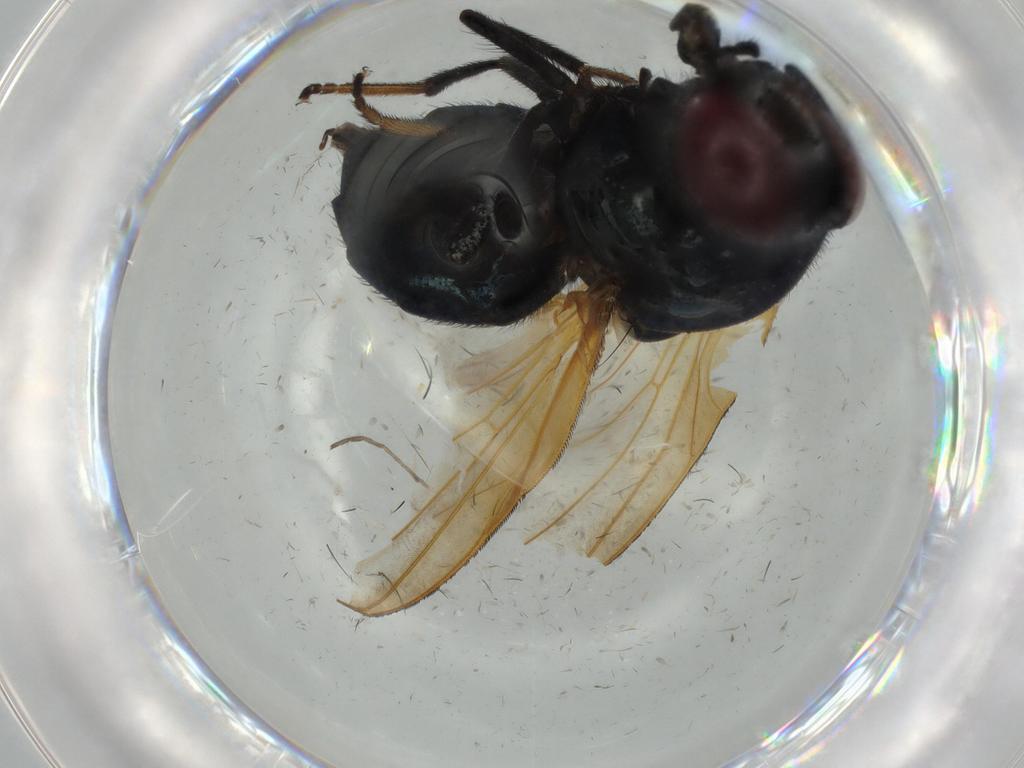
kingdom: Animalia
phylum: Arthropoda
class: Insecta
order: Diptera
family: Lonchaeidae
